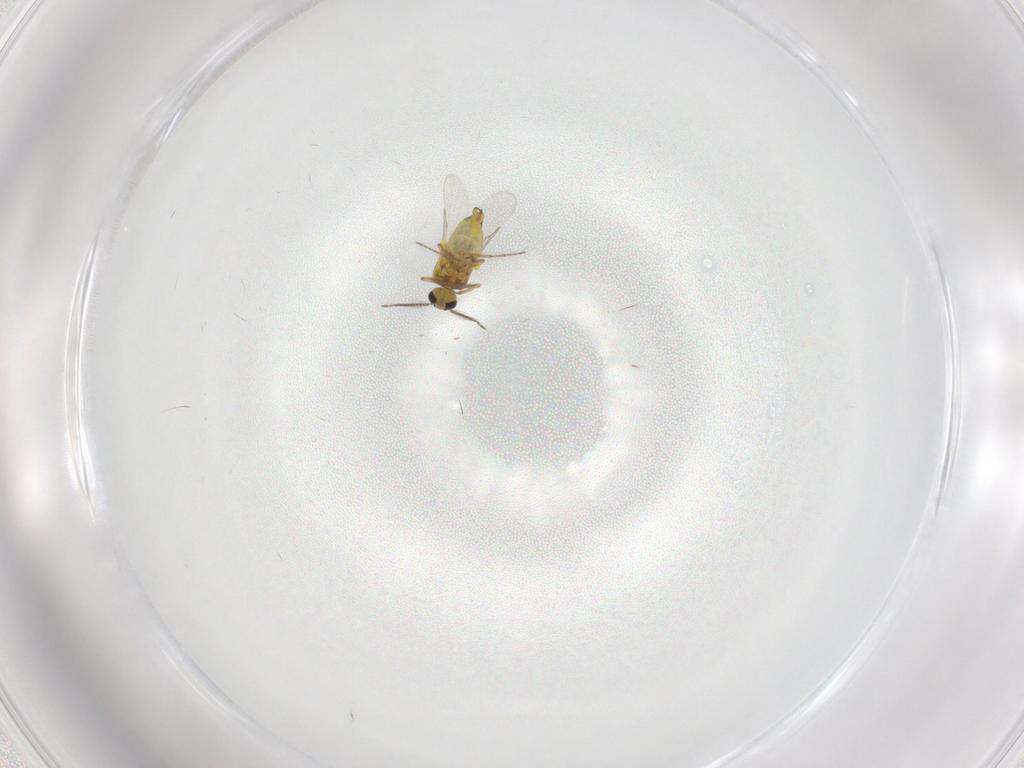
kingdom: Animalia
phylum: Arthropoda
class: Insecta
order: Diptera
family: Ceratopogonidae
